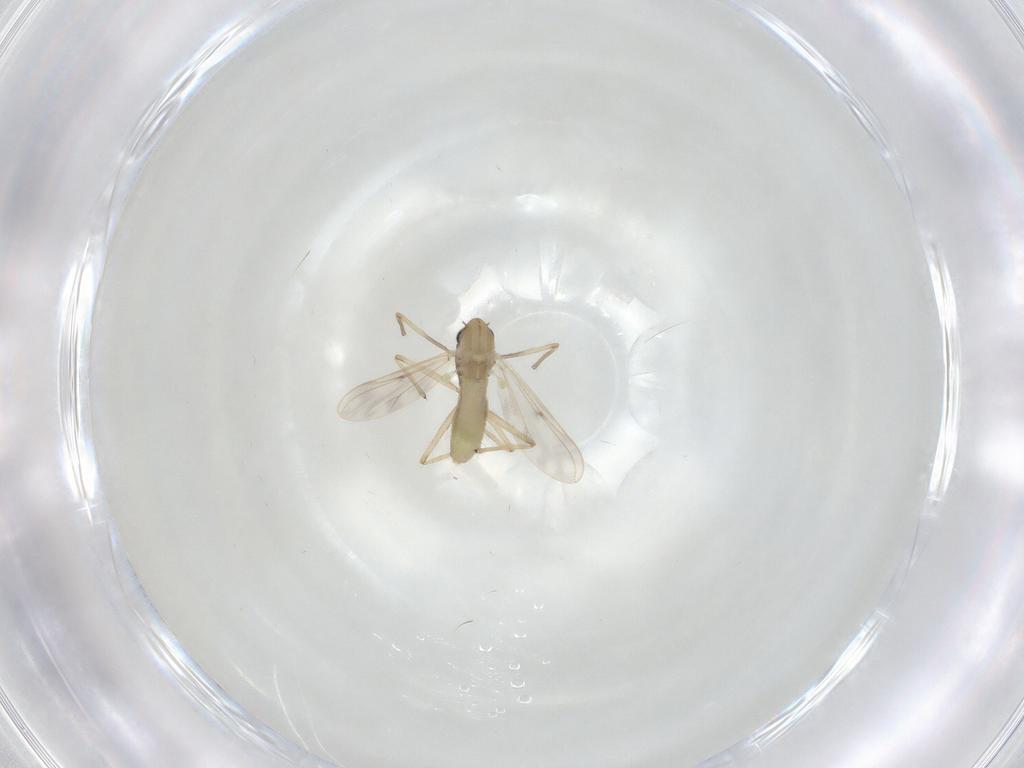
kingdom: Animalia
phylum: Arthropoda
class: Insecta
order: Diptera
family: Chironomidae
